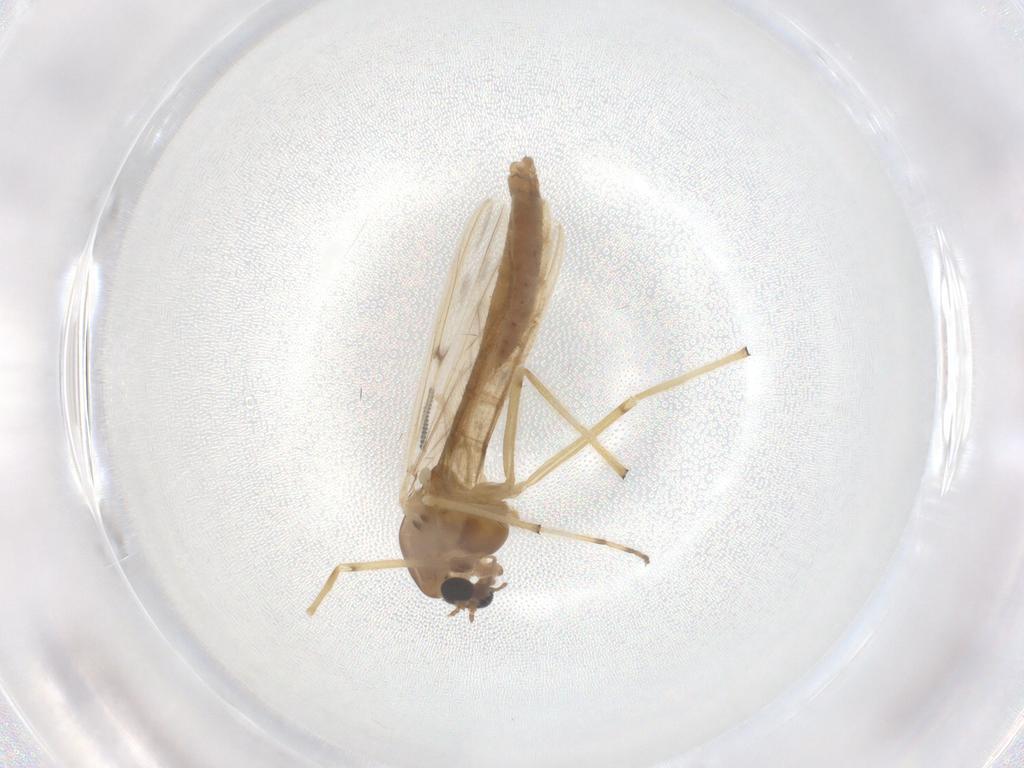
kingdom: Animalia
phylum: Arthropoda
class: Insecta
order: Diptera
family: Chironomidae
